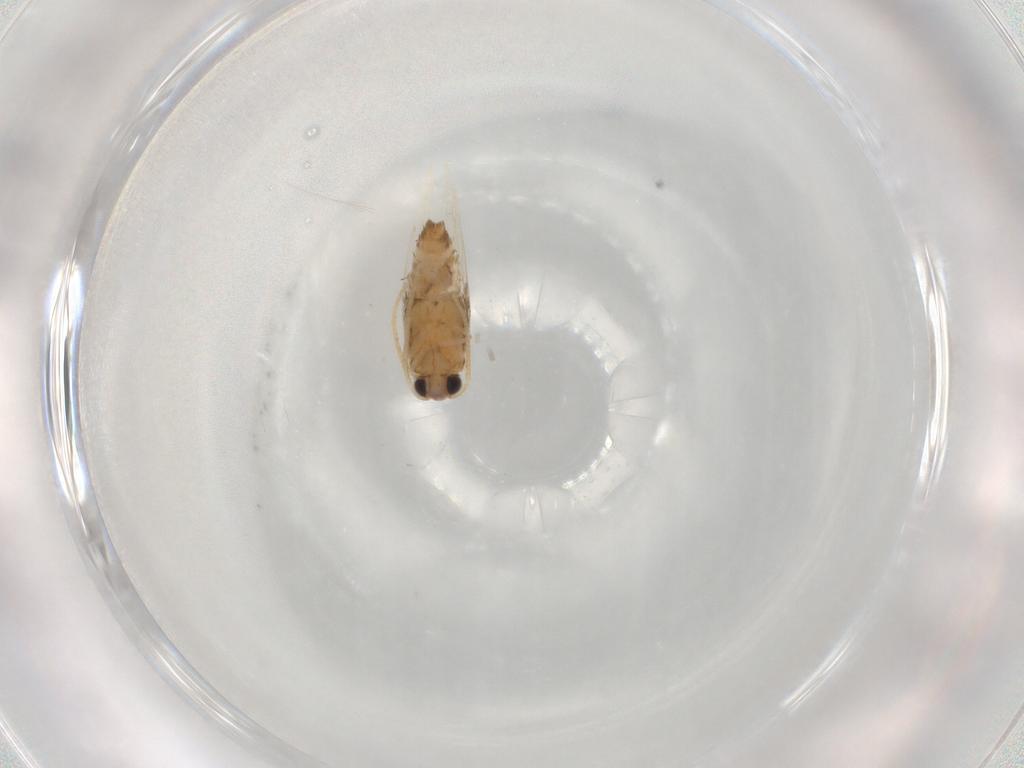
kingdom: Animalia
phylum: Arthropoda
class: Insecta
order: Lepidoptera
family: Nepticulidae
